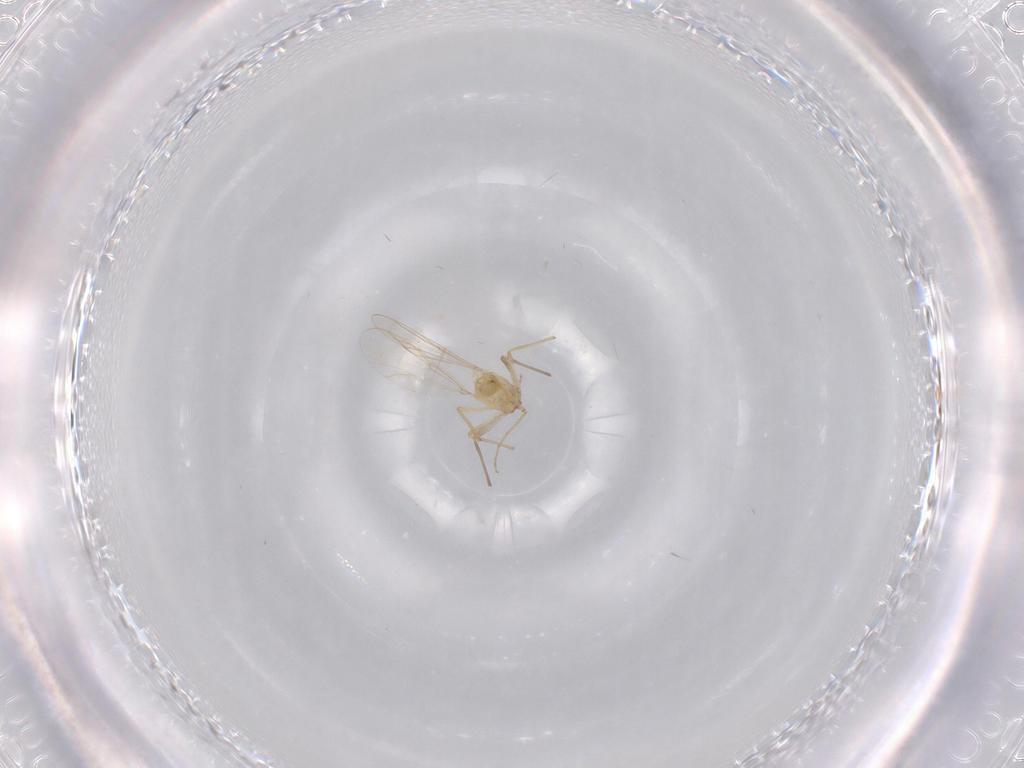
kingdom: Animalia
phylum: Arthropoda
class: Insecta
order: Diptera
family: Chironomidae
